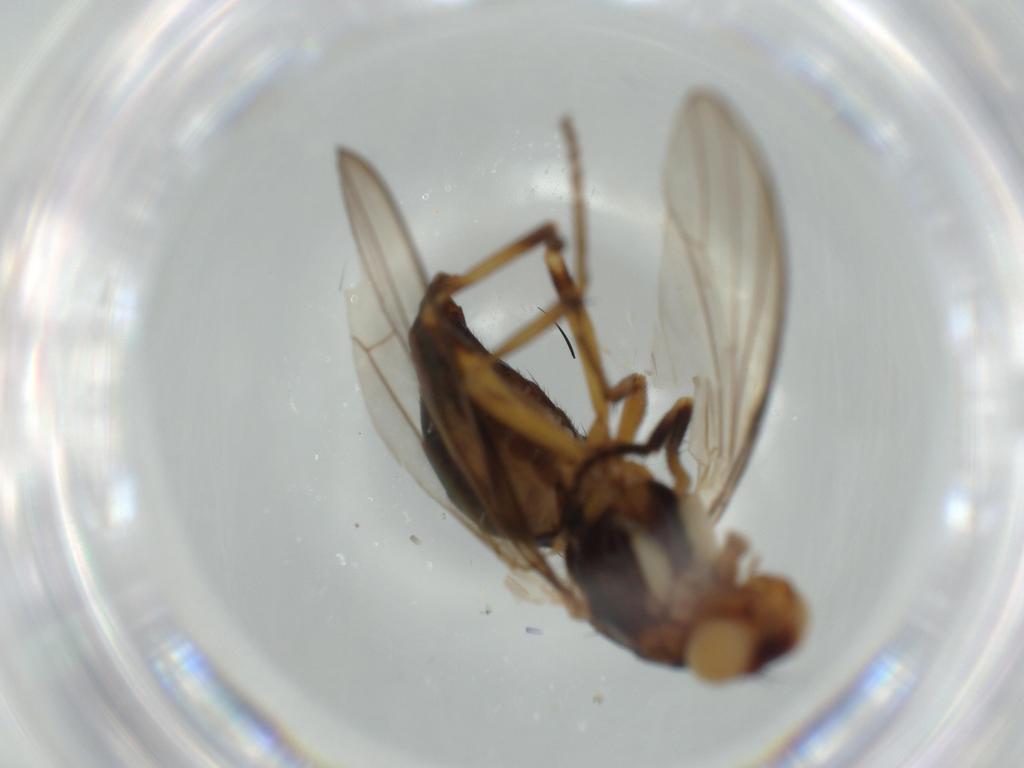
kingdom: Animalia
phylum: Arthropoda
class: Insecta
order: Diptera
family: Piophilidae
